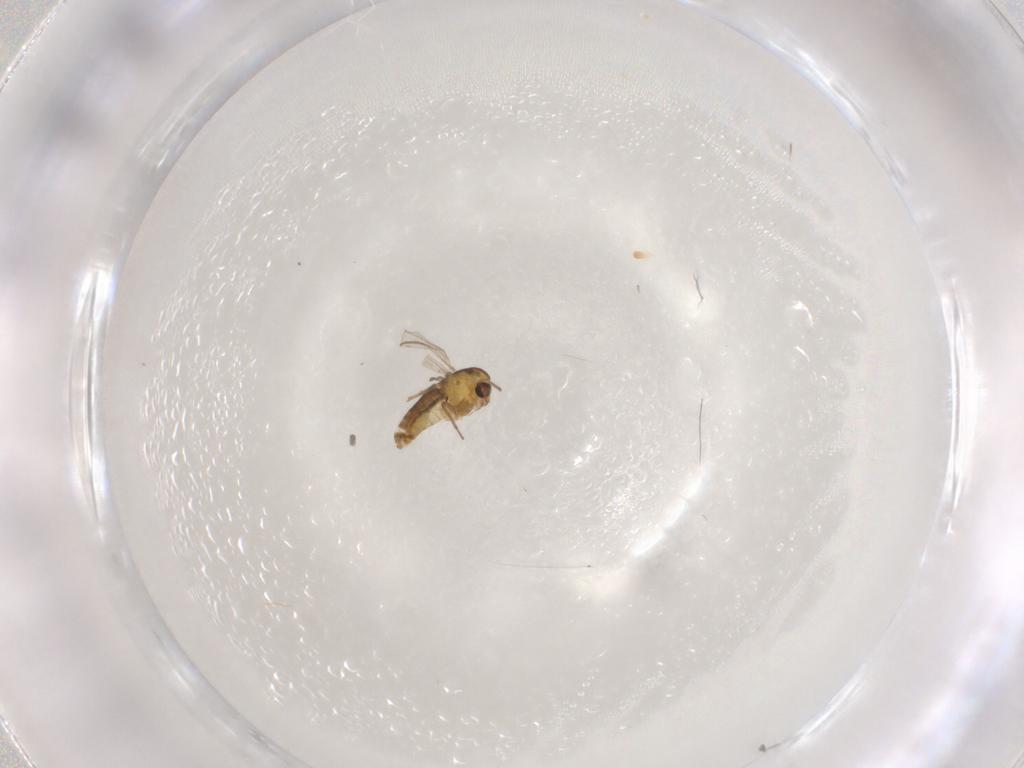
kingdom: Animalia
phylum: Arthropoda
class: Insecta
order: Diptera
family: Chironomidae
